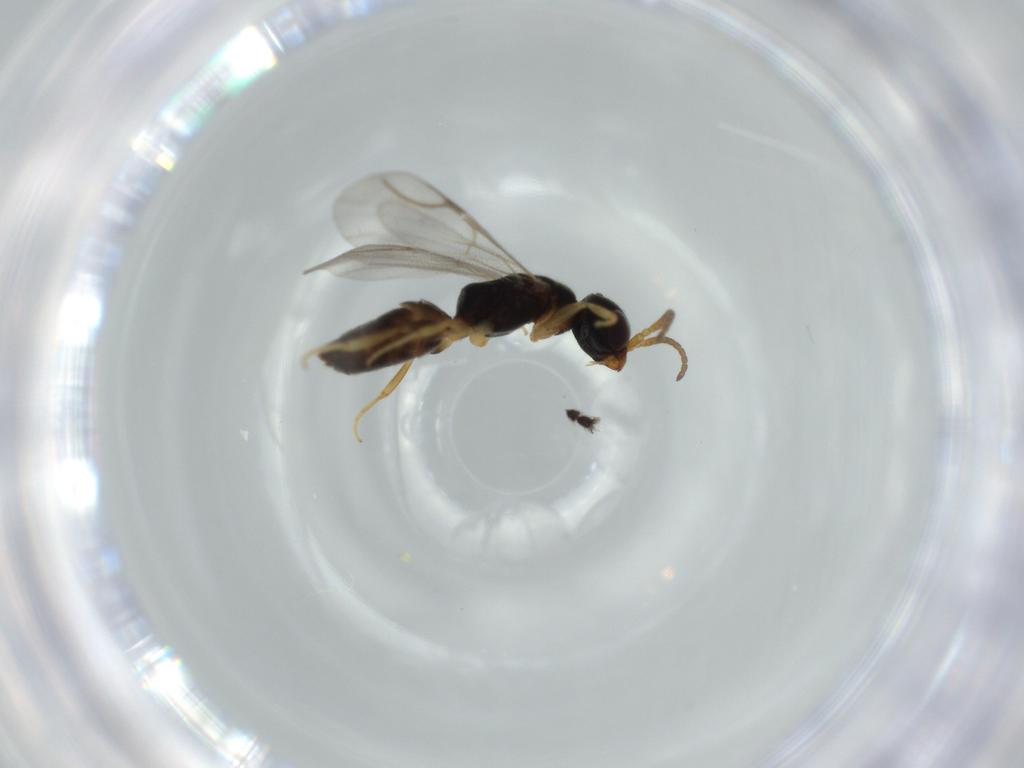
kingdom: Animalia
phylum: Arthropoda
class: Insecta
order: Hymenoptera
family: Bethylidae
